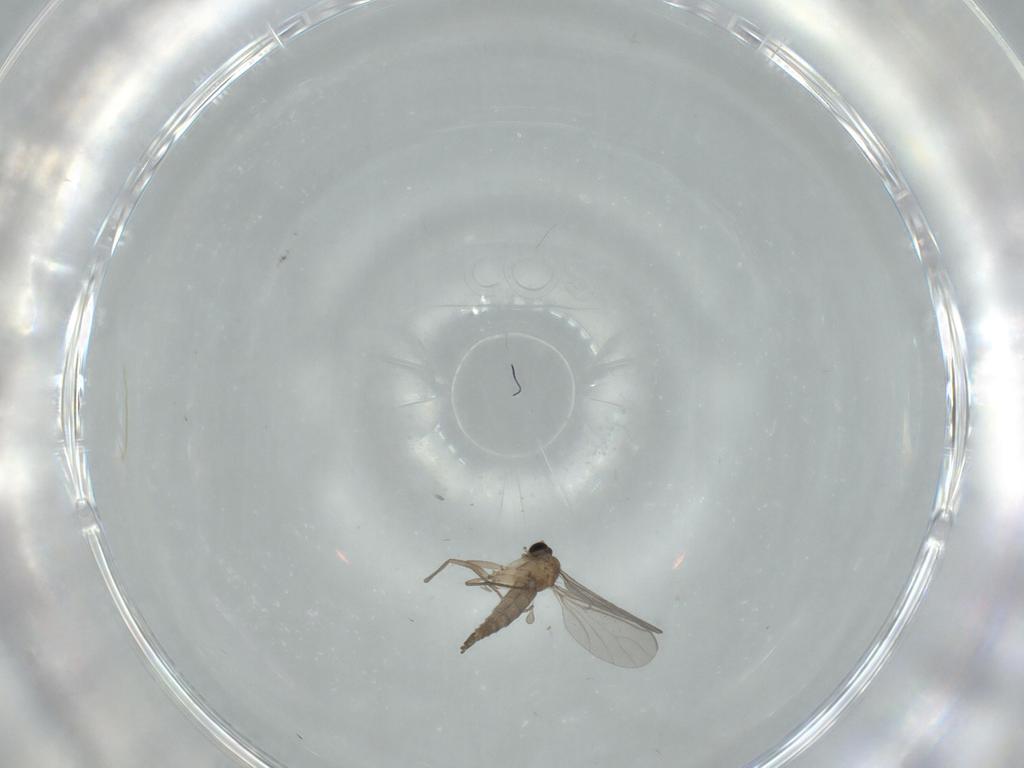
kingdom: Animalia
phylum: Arthropoda
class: Insecta
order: Diptera
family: Sciaridae
